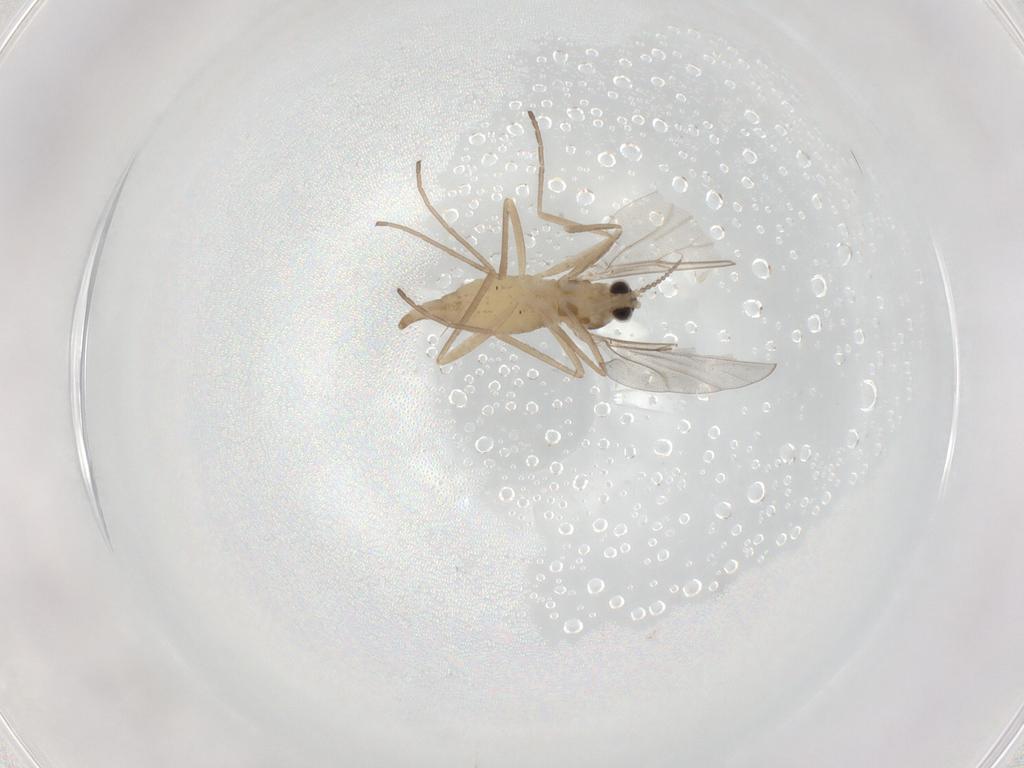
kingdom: Animalia
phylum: Arthropoda
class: Insecta
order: Diptera
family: Cecidomyiidae
